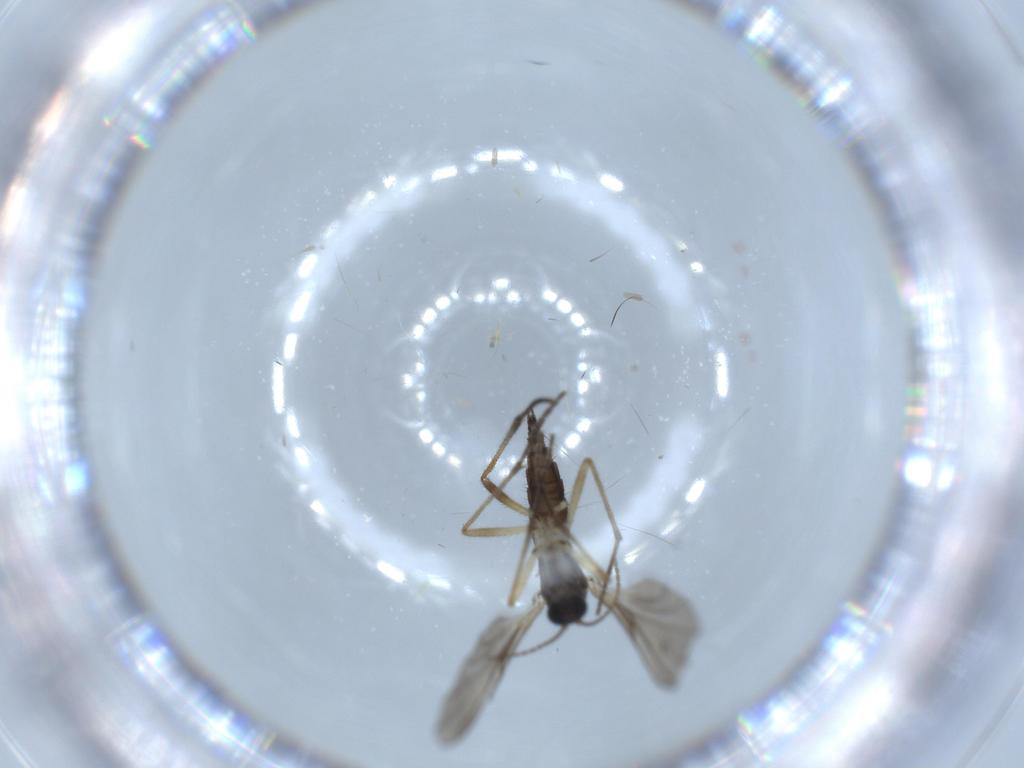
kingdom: Animalia
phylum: Arthropoda
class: Insecta
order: Diptera
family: Sciaridae
